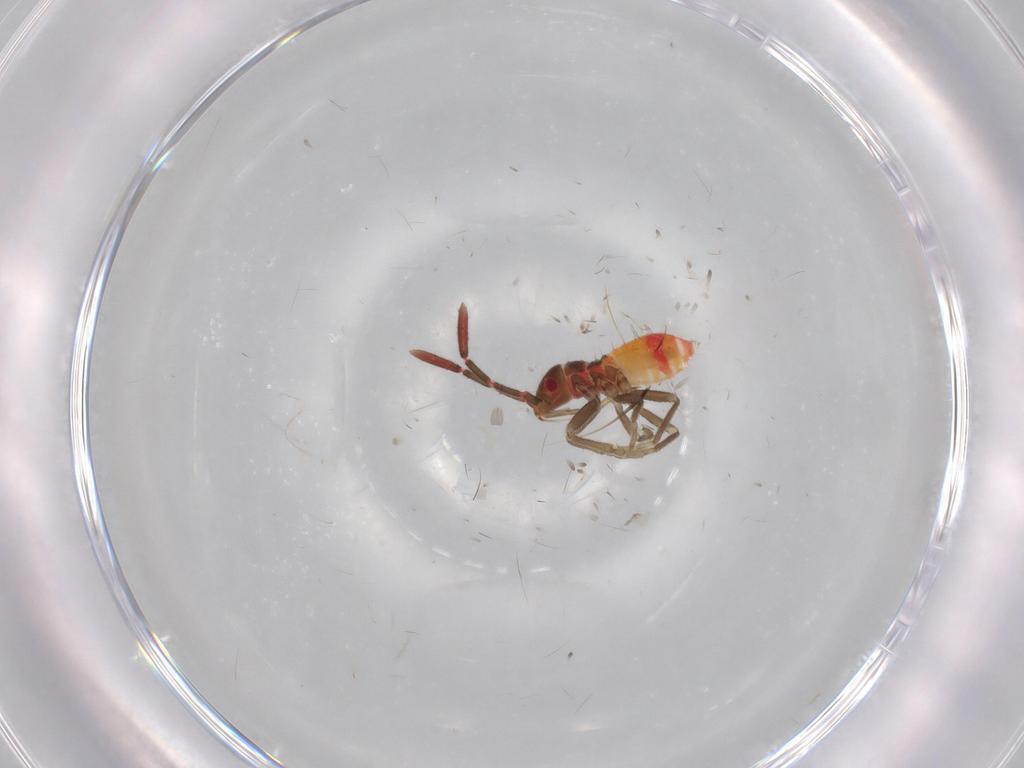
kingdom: Animalia
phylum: Arthropoda
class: Insecta
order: Hemiptera
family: Rhyparochromidae
